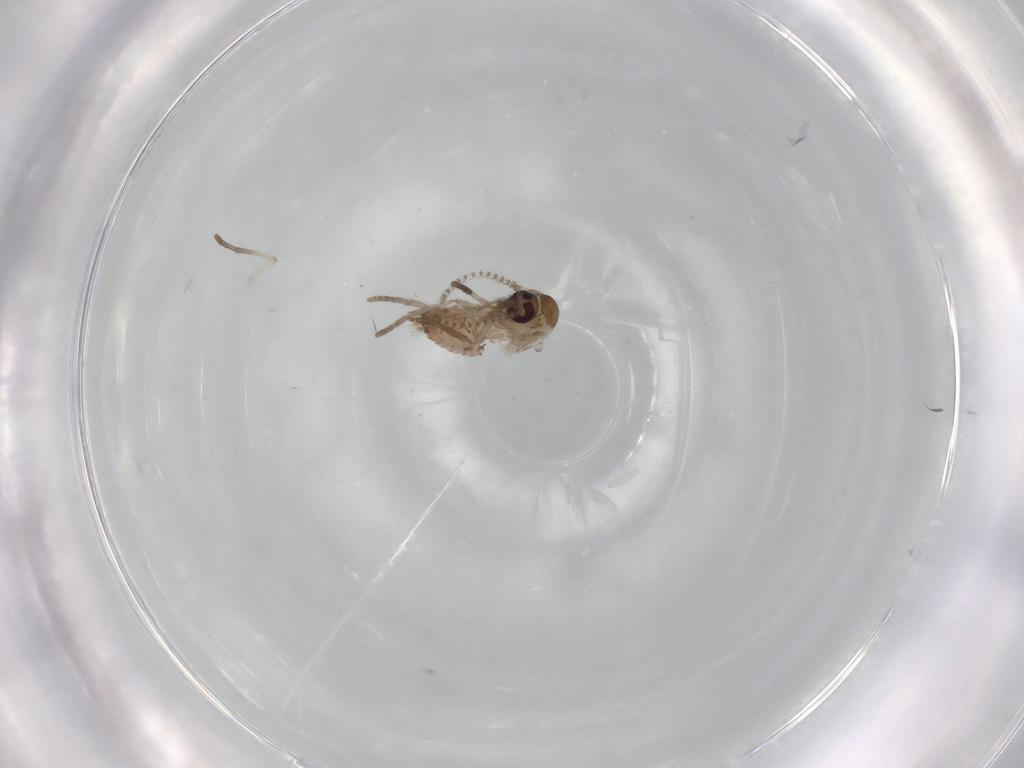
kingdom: Animalia
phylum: Arthropoda
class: Insecta
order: Diptera
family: Psychodidae
